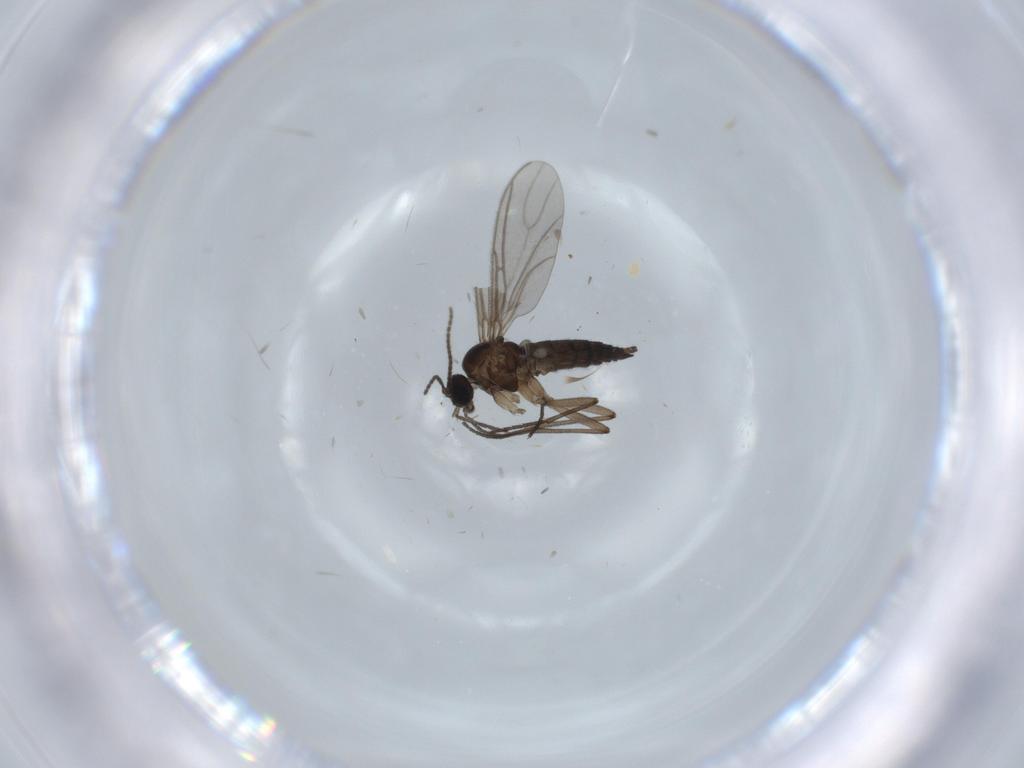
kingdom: Animalia
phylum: Arthropoda
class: Insecta
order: Diptera
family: Sciaridae
